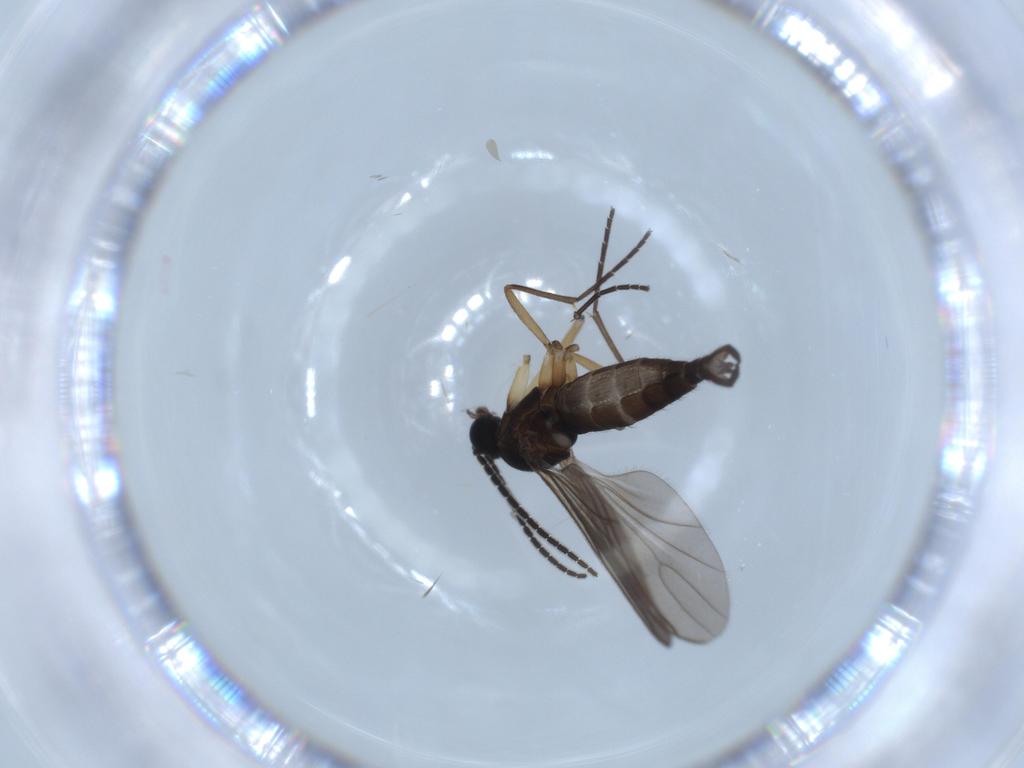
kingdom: Animalia
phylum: Arthropoda
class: Insecta
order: Diptera
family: Sciaridae
